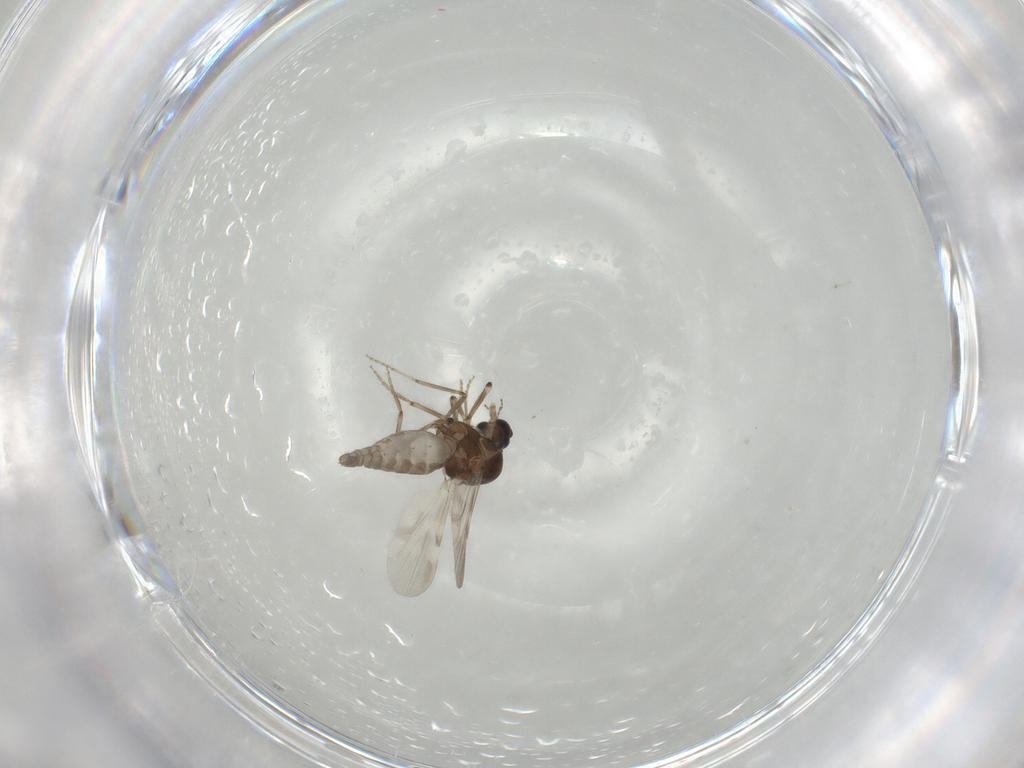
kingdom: Animalia
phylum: Arthropoda
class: Insecta
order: Diptera
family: Ceratopogonidae
